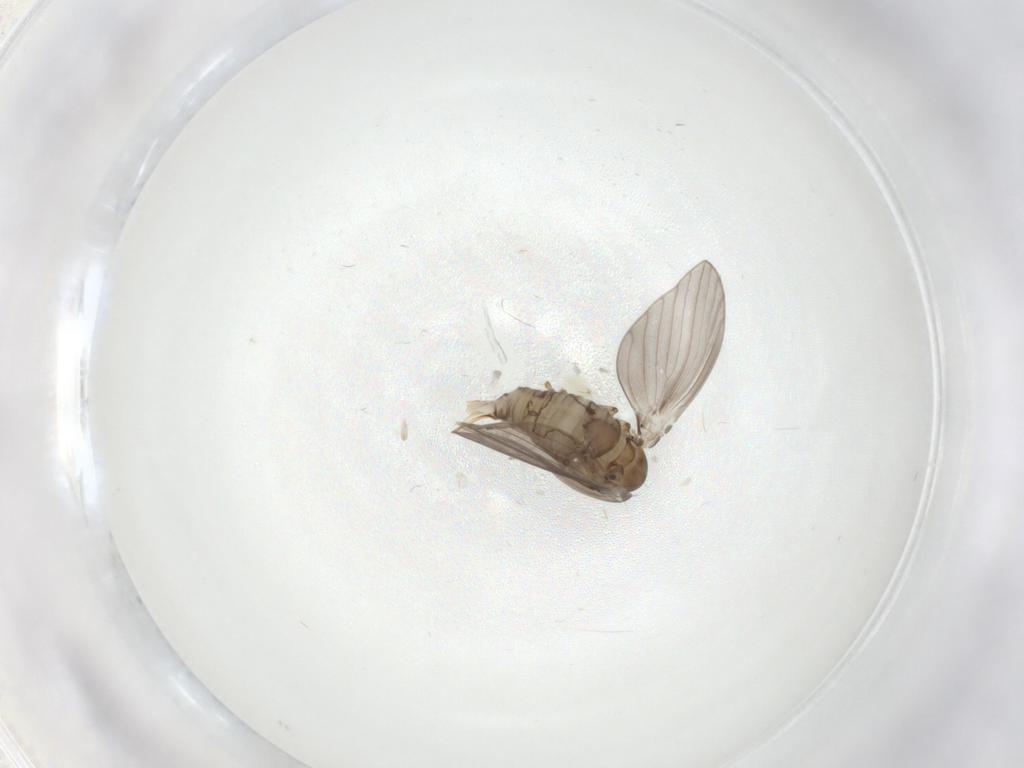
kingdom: Animalia
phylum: Arthropoda
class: Insecta
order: Diptera
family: Psychodidae
